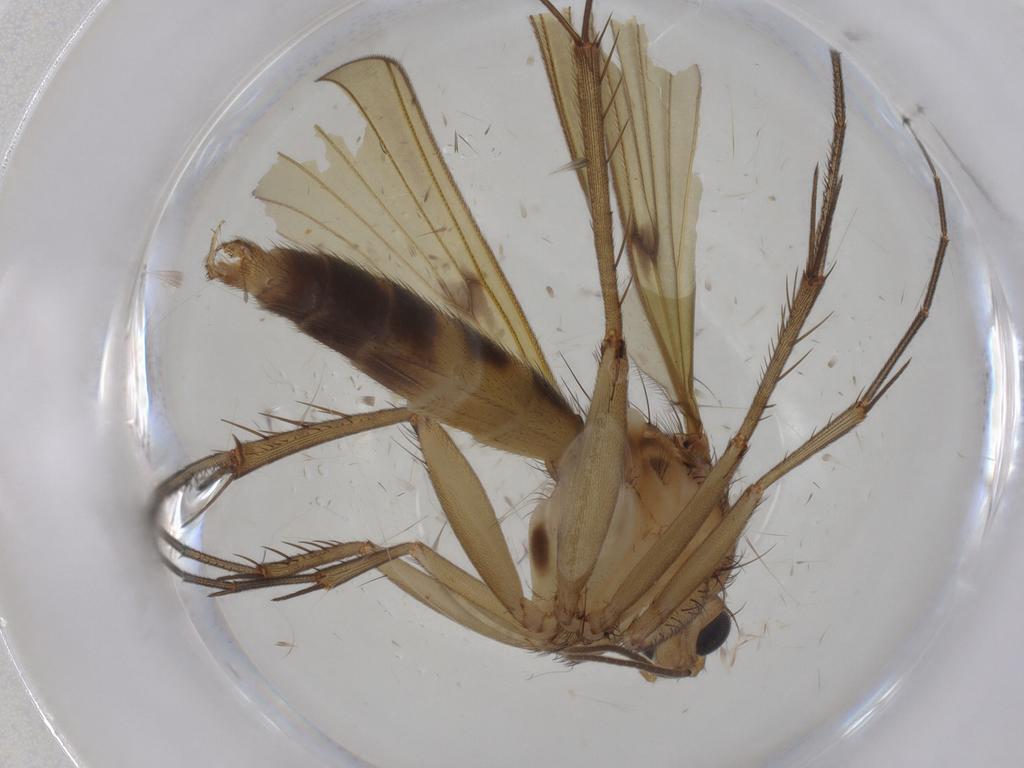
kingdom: Animalia
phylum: Arthropoda
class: Insecta
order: Diptera
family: Mycetophilidae
